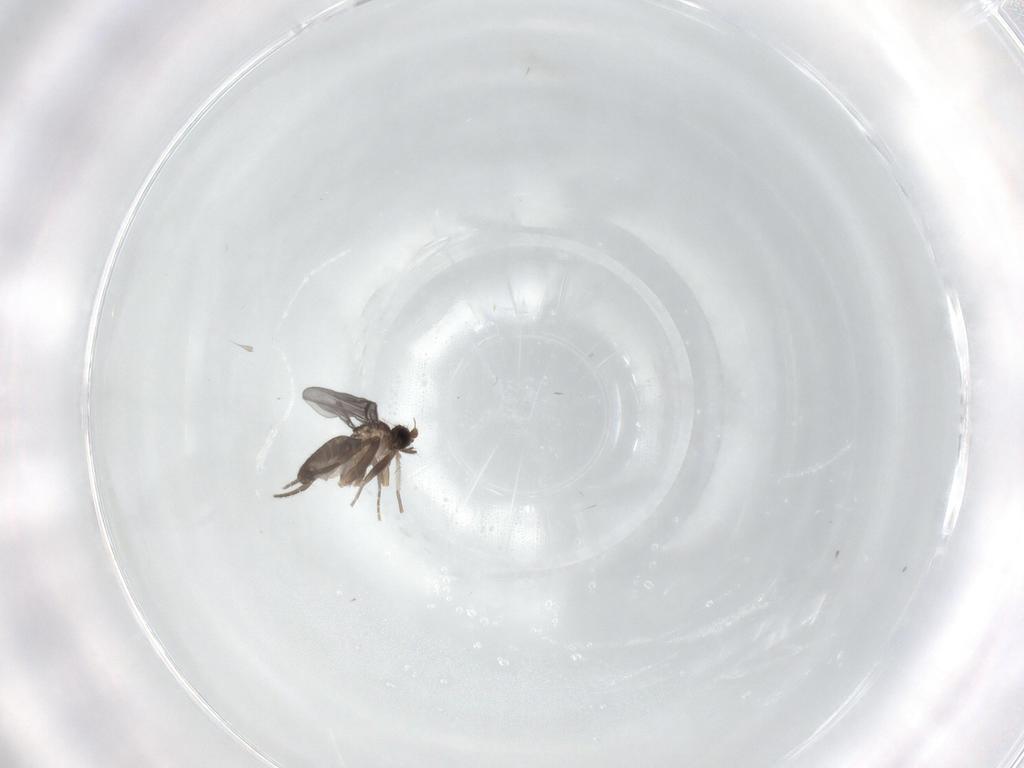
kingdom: Animalia
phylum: Arthropoda
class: Insecta
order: Diptera
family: Phoridae
